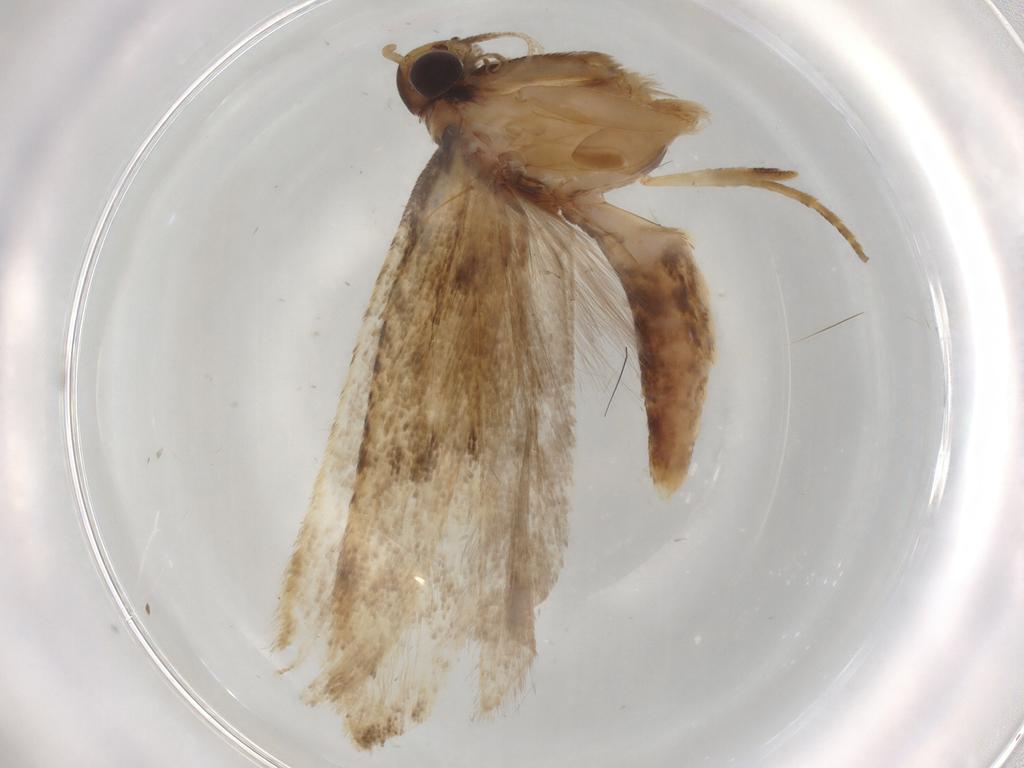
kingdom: Animalia
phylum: Arthropoda
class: Insecta
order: Lepidoptera
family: Gelechiidae
